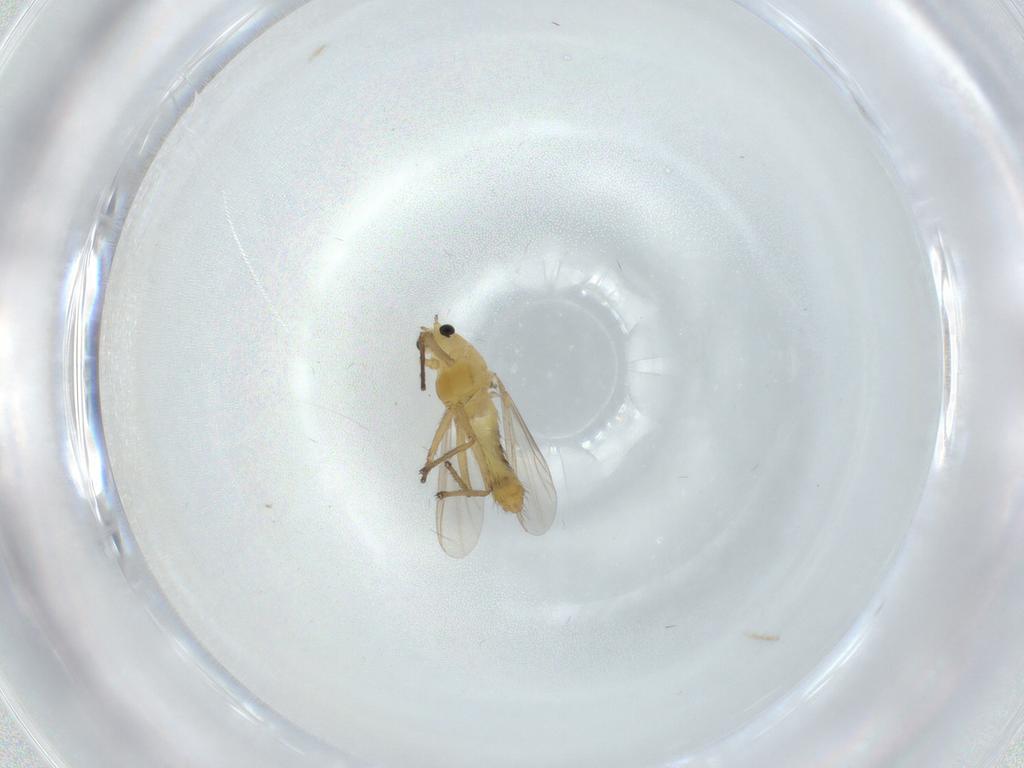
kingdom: Animalia
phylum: Arthropoda
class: Insecta
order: Diptera
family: Chironomidae
